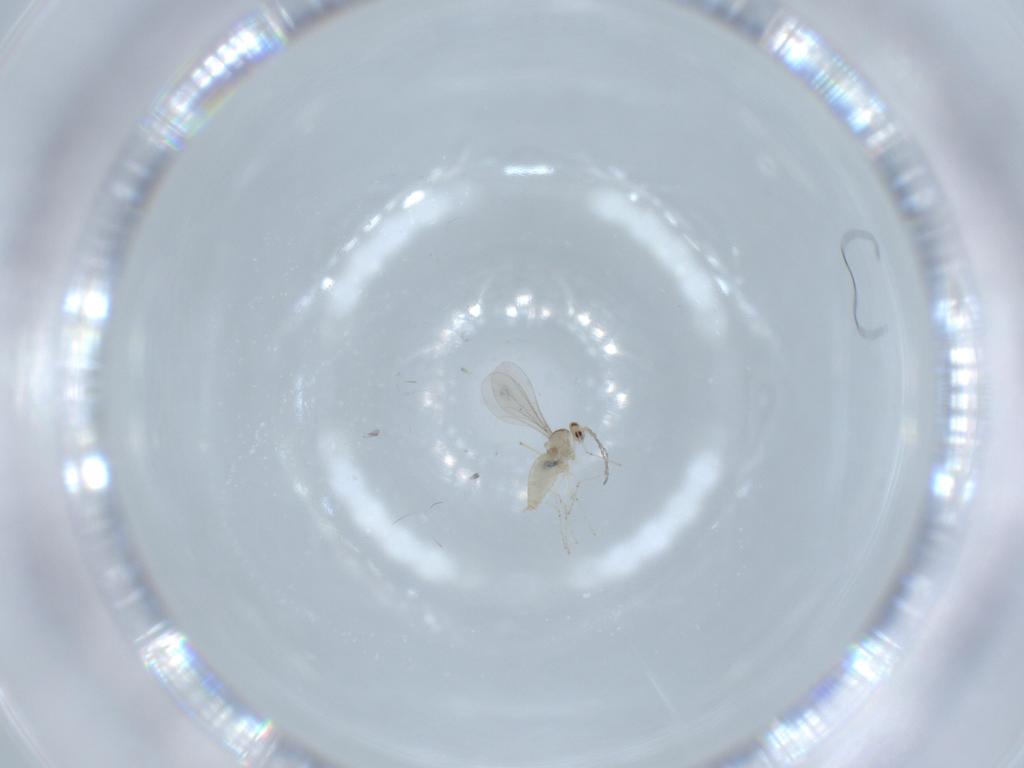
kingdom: Animalia
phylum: Arthropoda
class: Insecta
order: Diptera
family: Cecidomyiidae
